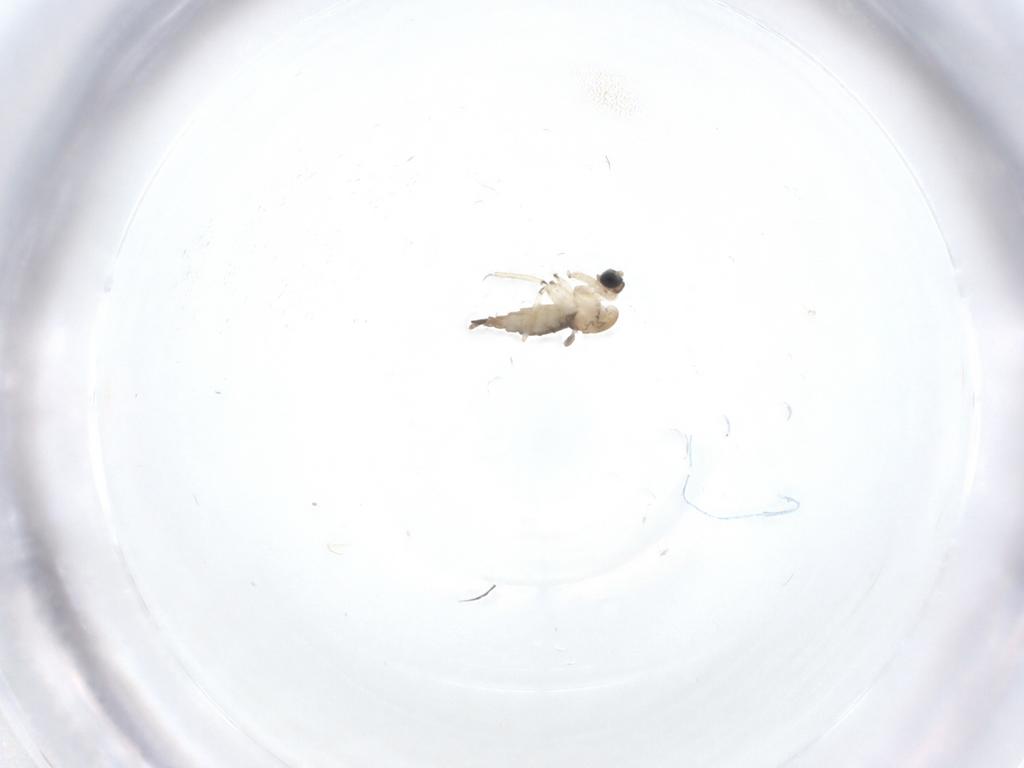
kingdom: Animalia
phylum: Arthropoda
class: Insecta
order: Diptera
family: Sciaridae
